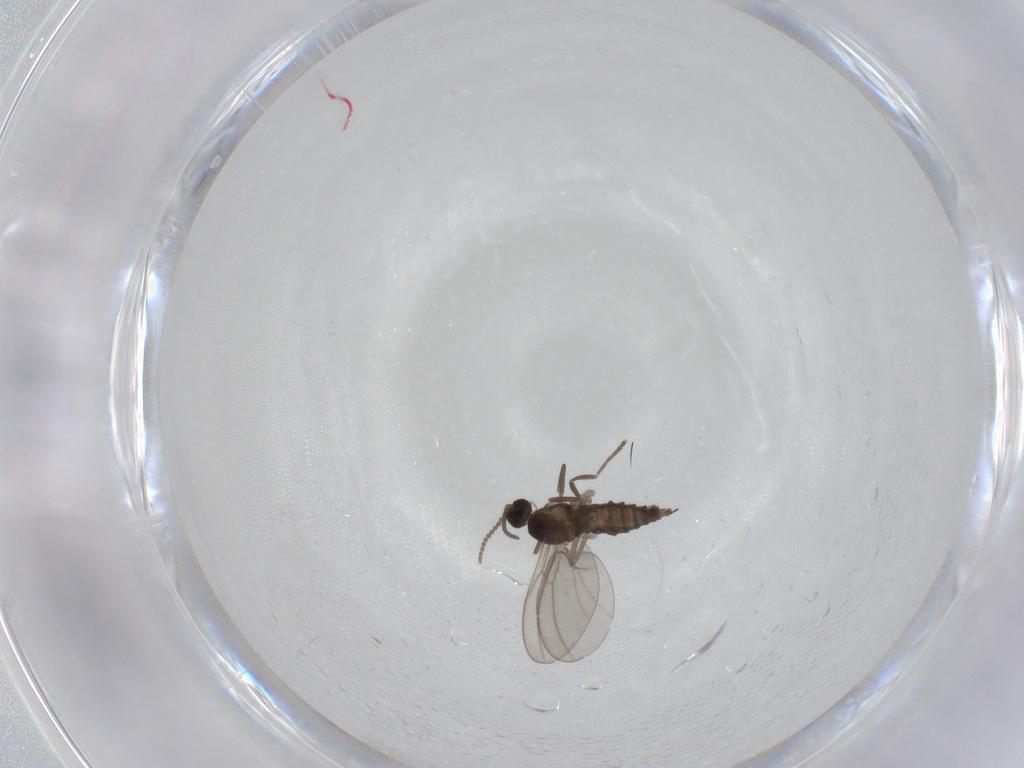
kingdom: Animalia
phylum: Arthropoda
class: Insecta
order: Diptera
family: Cecidomyiidae
